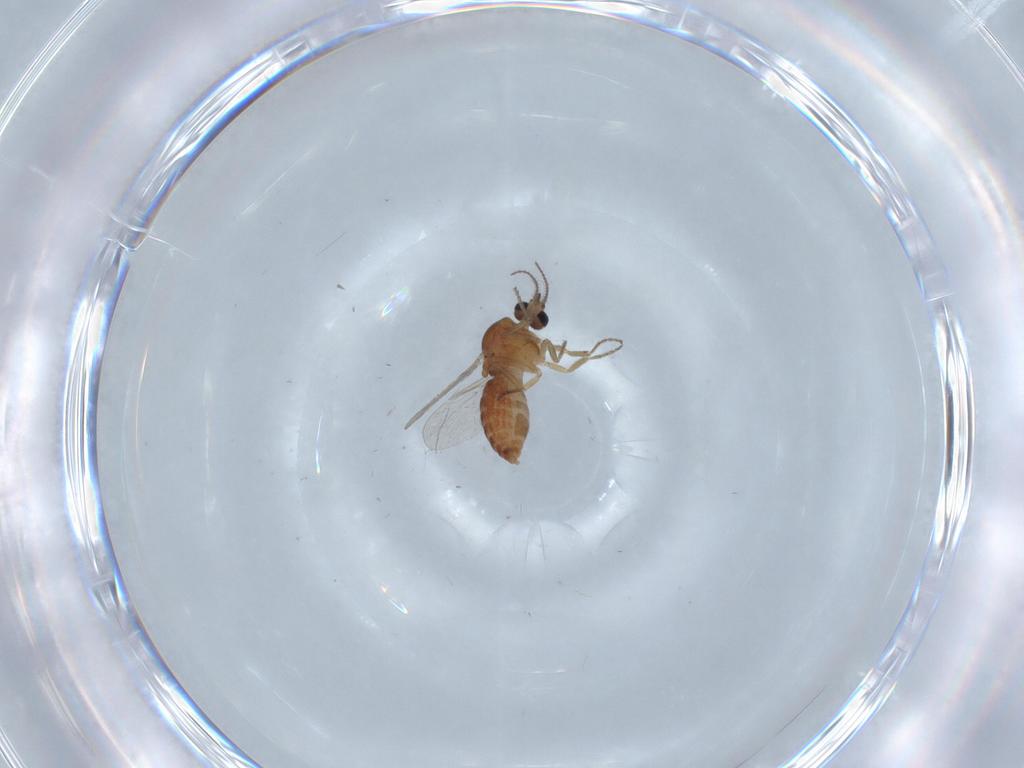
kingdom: Animalia
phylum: Arthropoda
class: Insecta
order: Diptera
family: Ceratopogonidae
